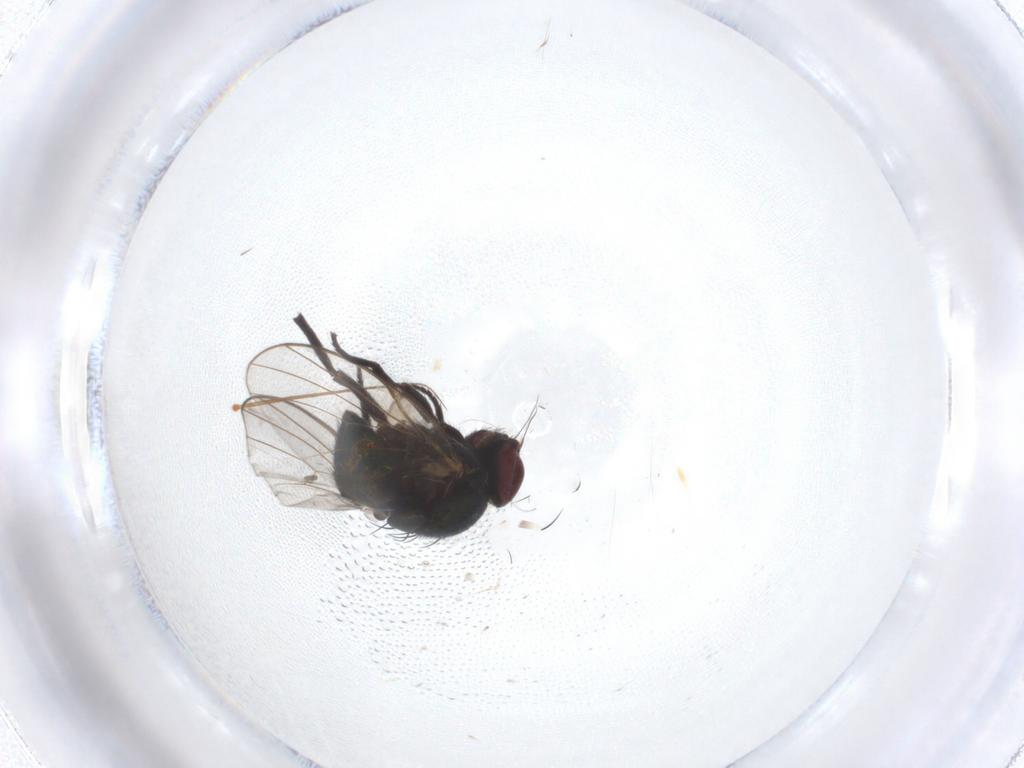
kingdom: Animalia
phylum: Arthropoda
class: Insecta
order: Diptera
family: Agromyzidae
